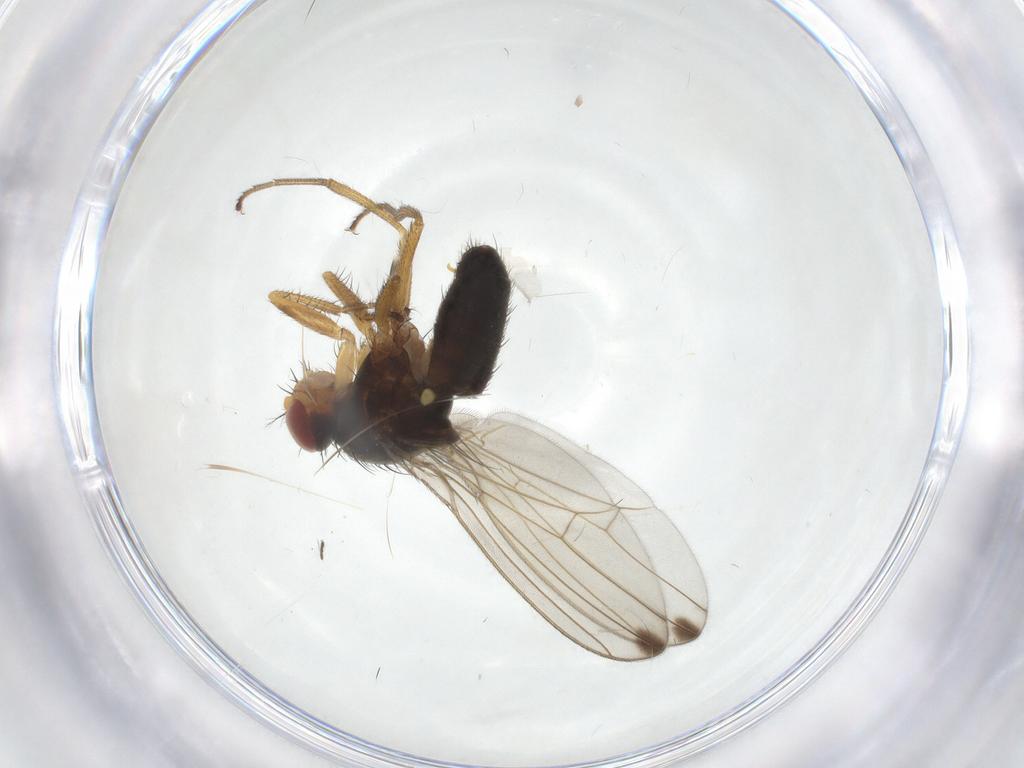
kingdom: Animalia
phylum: Arthropoda
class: Insecta
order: Diptera
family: Drosophilidae
